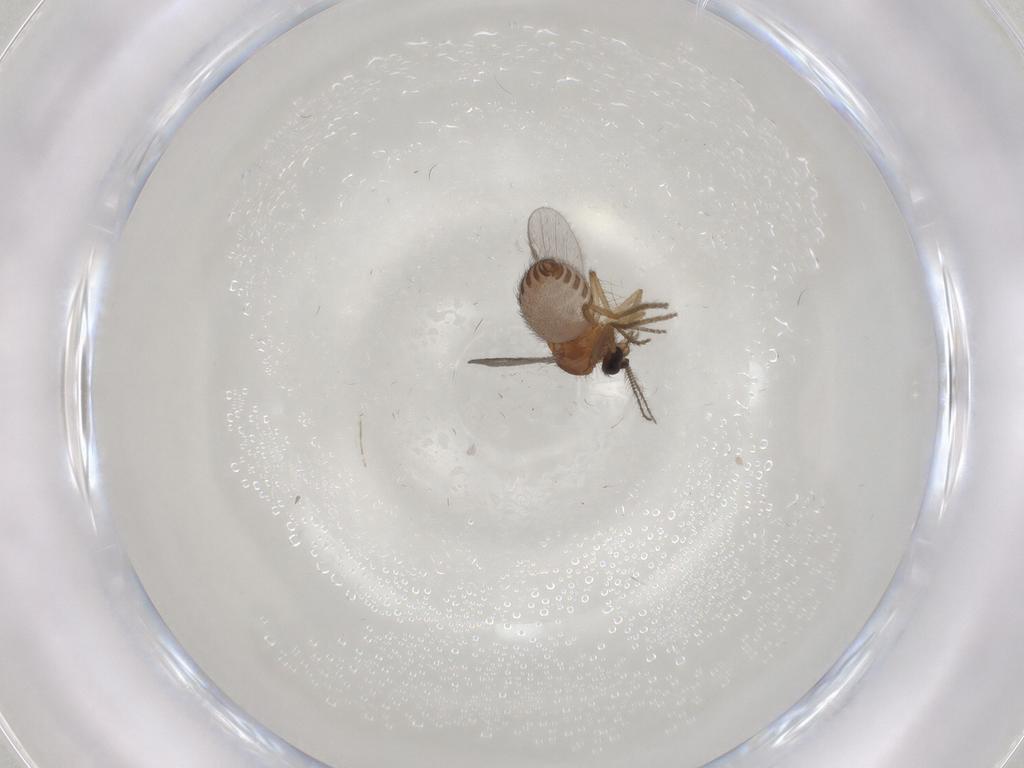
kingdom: Animalia
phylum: Arthropoda
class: Insecta
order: Diptera
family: Ceratopogonidae
